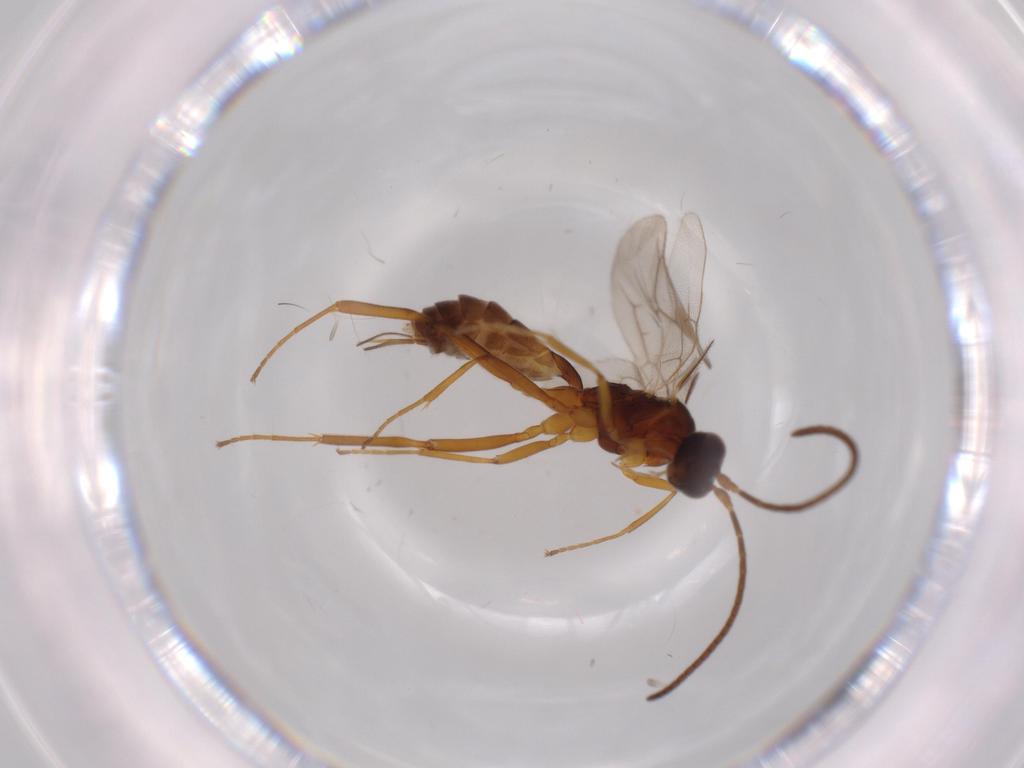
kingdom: Animalia
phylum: Arthropoda
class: Insecta
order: Hymenoptera
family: Ichneumonidae
